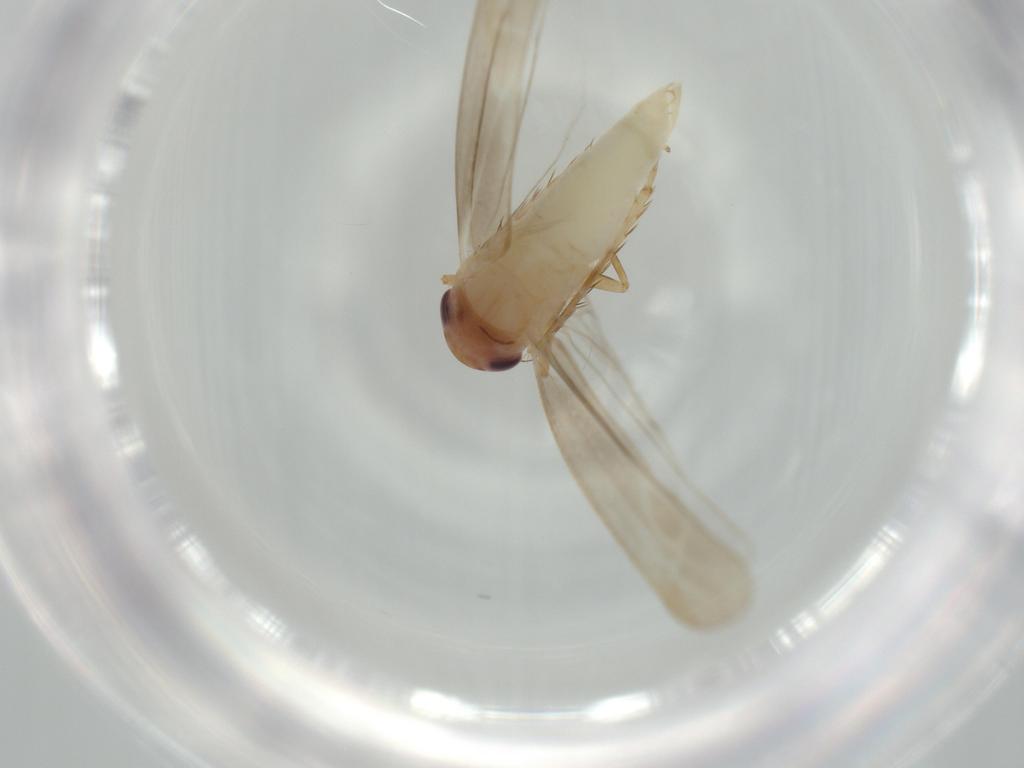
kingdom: Animalia
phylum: Arthropoda
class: Insecta
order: Hemiptera
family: Cicadellidae
